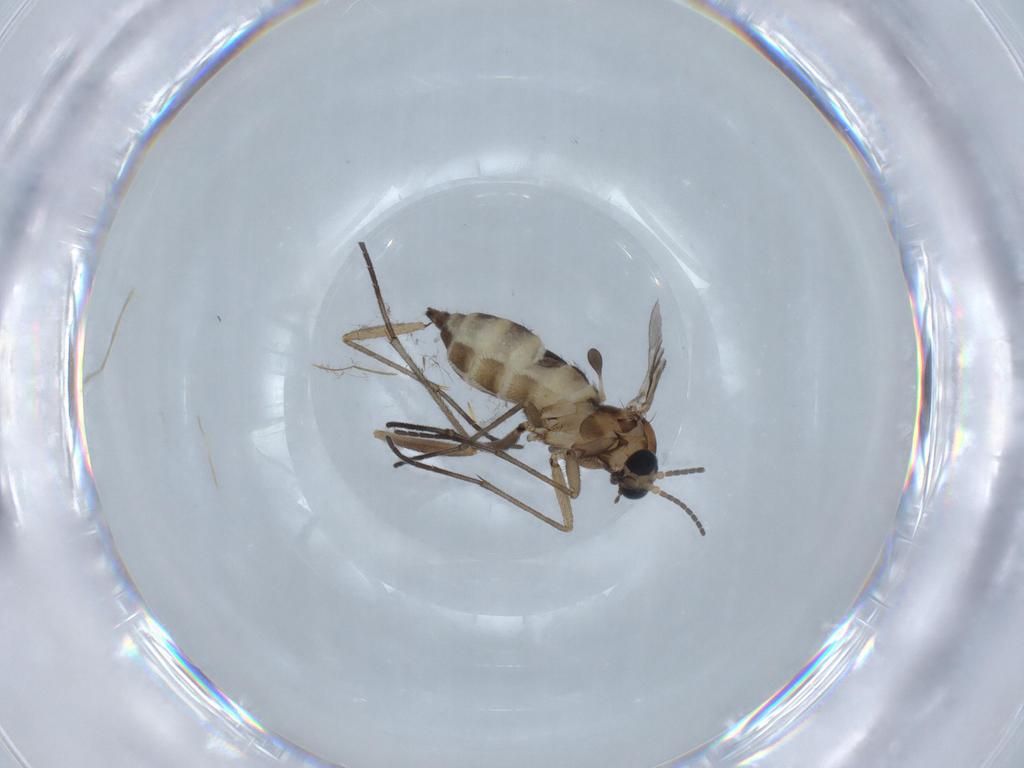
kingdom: Animalia
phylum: Arthropoda
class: Insecta
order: Diptera
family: Sciaridae
